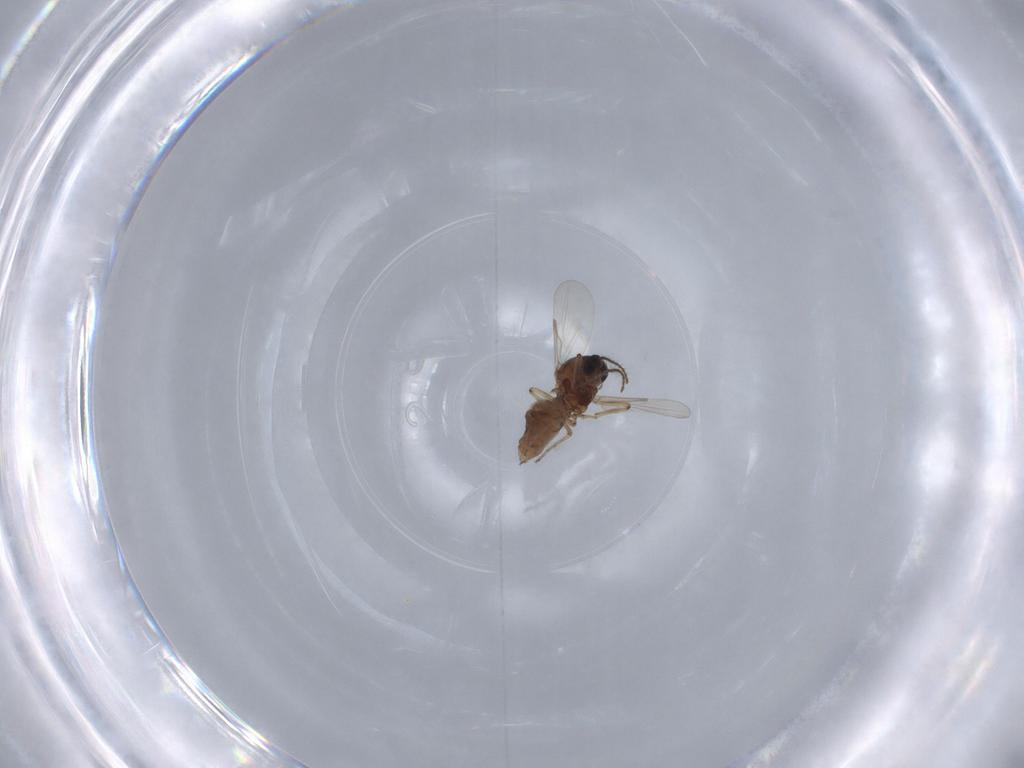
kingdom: Animalia
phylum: Arthropoda
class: Insecta
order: Diptera
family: Ceratopogonidae
